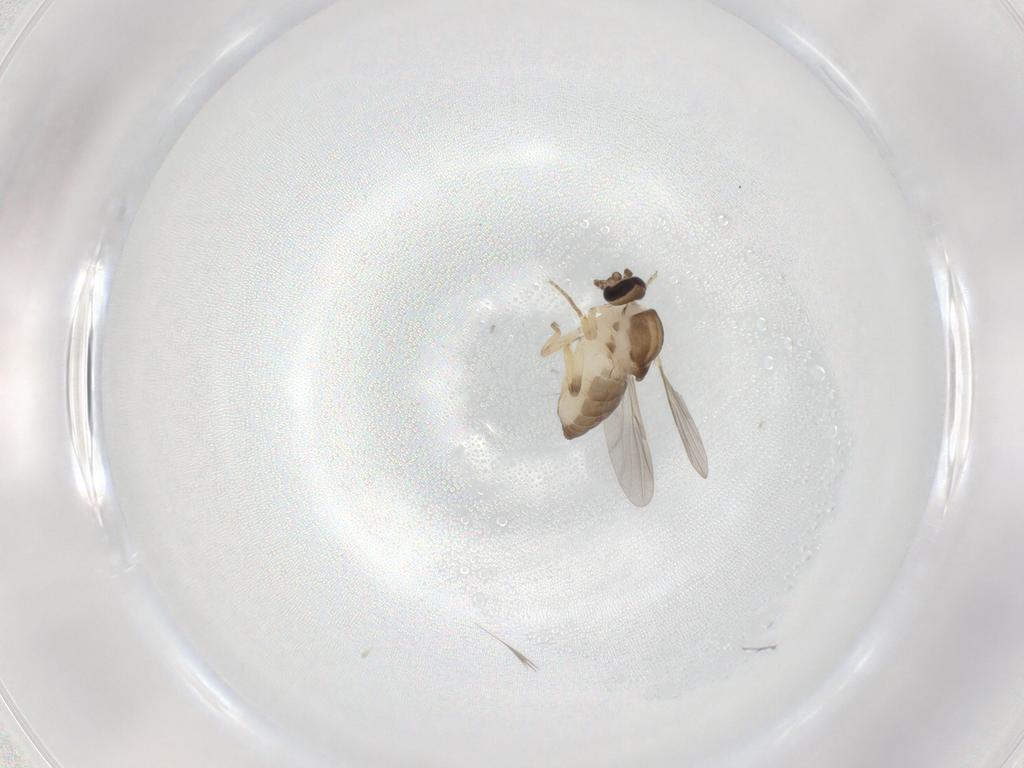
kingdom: Animalia
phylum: Arthropoda
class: Insecta
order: Diptera
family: Ceratopogonidae
